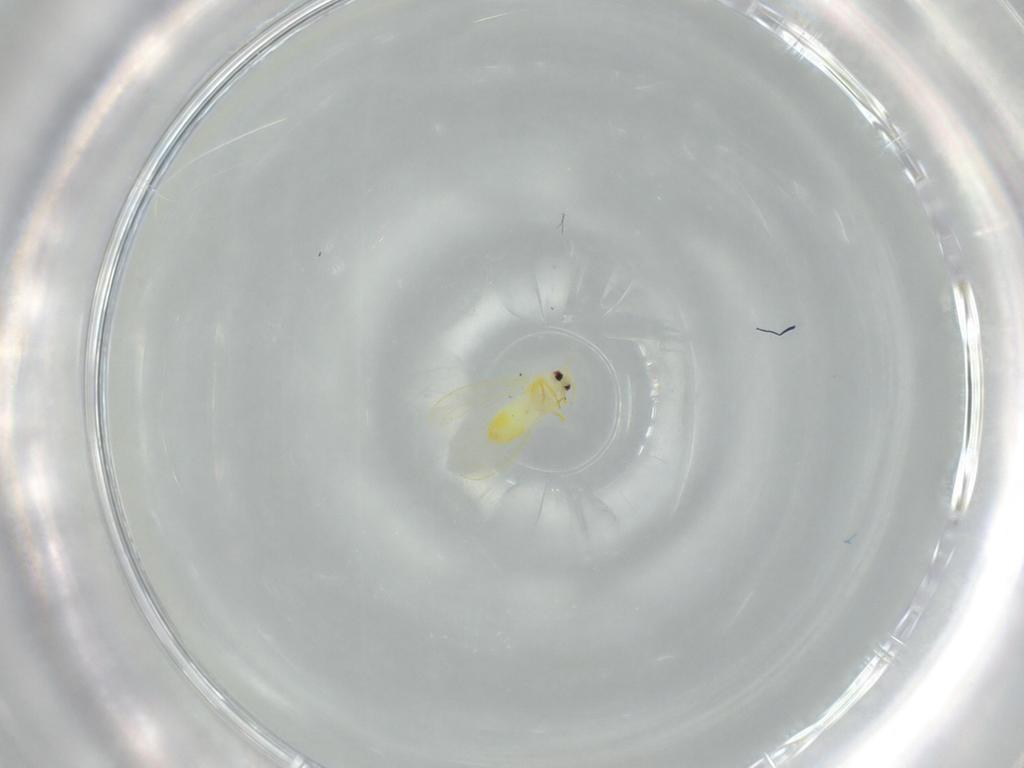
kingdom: Animalia
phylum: Arthropoda
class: Insecta
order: Hemiptera
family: Aleyrodidae
